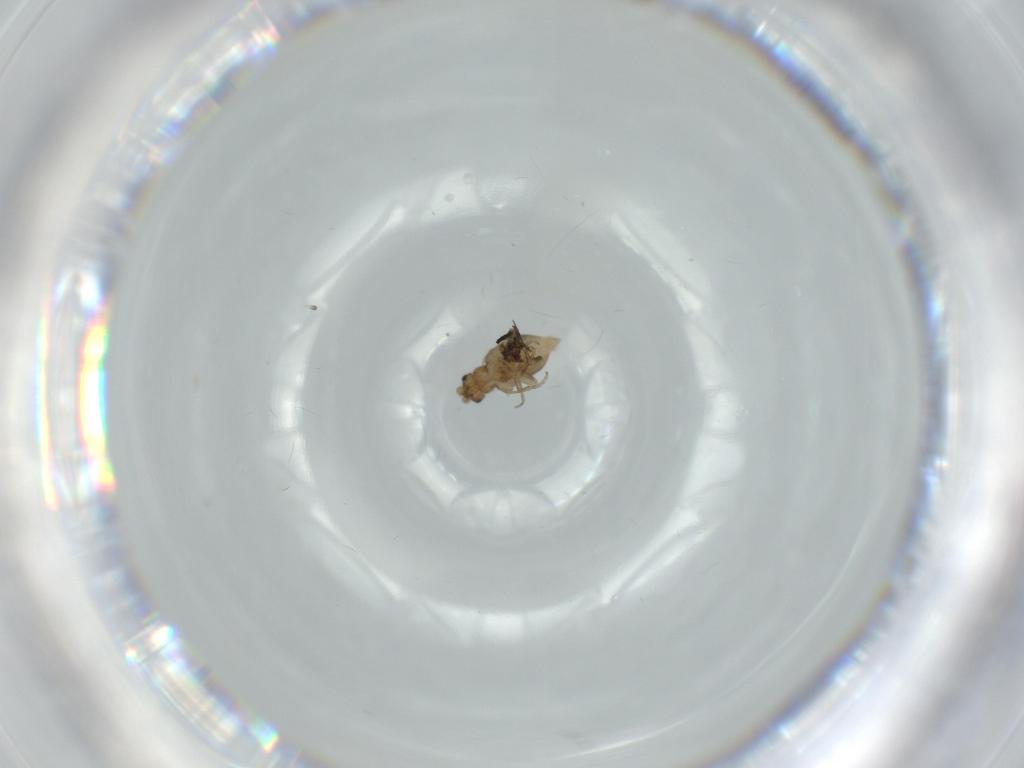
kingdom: Animalia
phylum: Arthropoda
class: Insecta
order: Diptera
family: Phoridae
